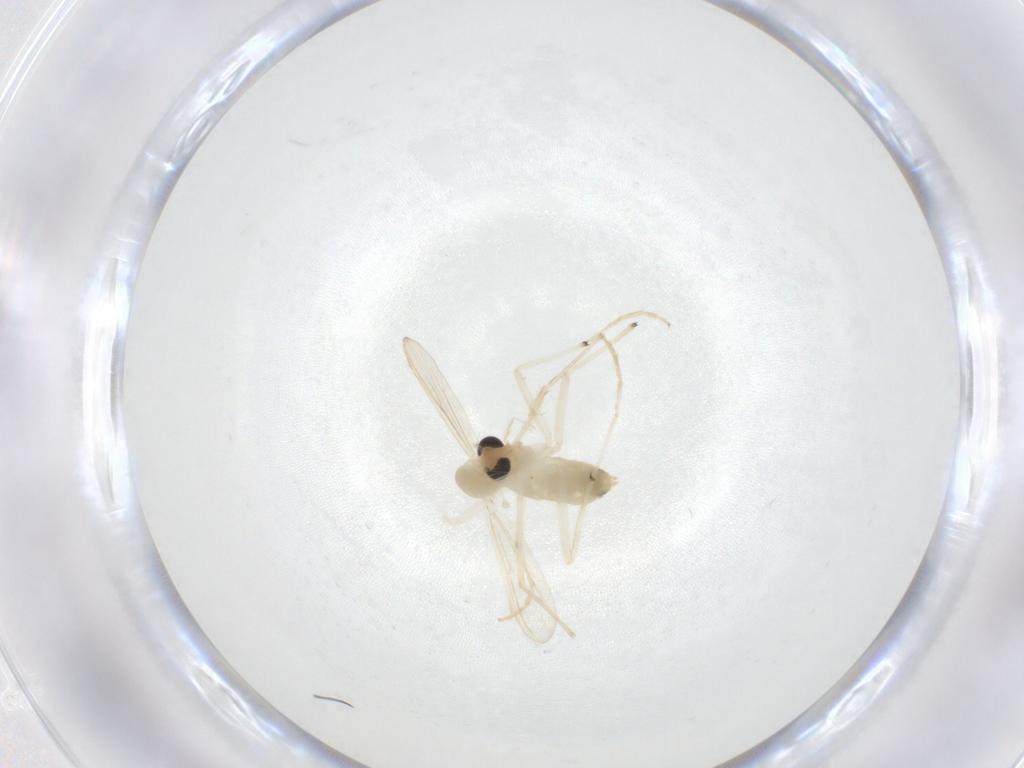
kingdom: Animalia
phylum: Arthropoda
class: Insecta
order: Diptera
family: Chironomidae
